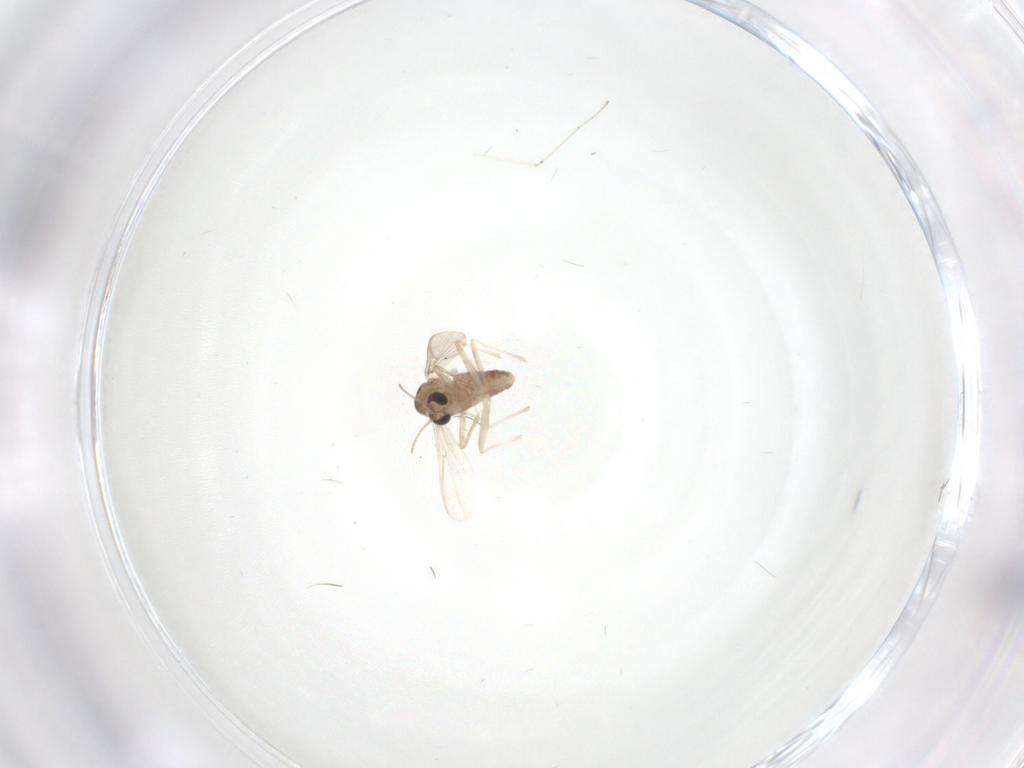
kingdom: Animalia
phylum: Arthropoda
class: Insecta
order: Diptera
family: Cecidomyiidae
